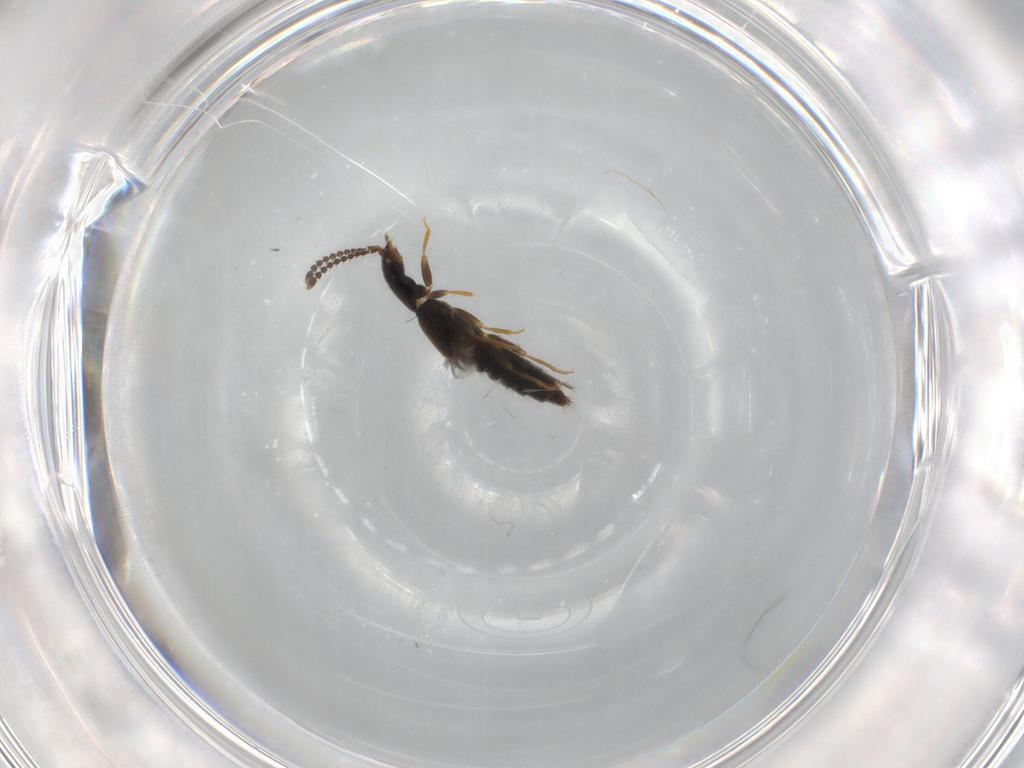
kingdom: Animalia
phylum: Arthropoda
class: Insecta
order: Coleoptera
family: Staphylinidae
